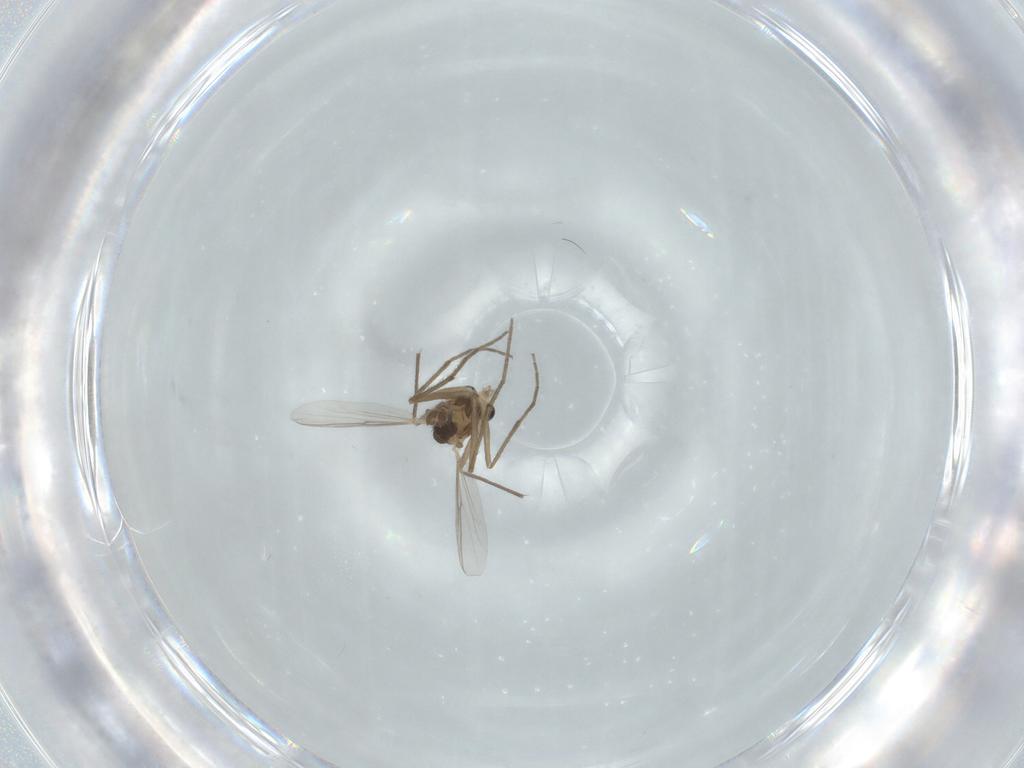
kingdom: Animalia
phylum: Arthropoda
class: Insecta
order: Diptera
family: Chironomidae
